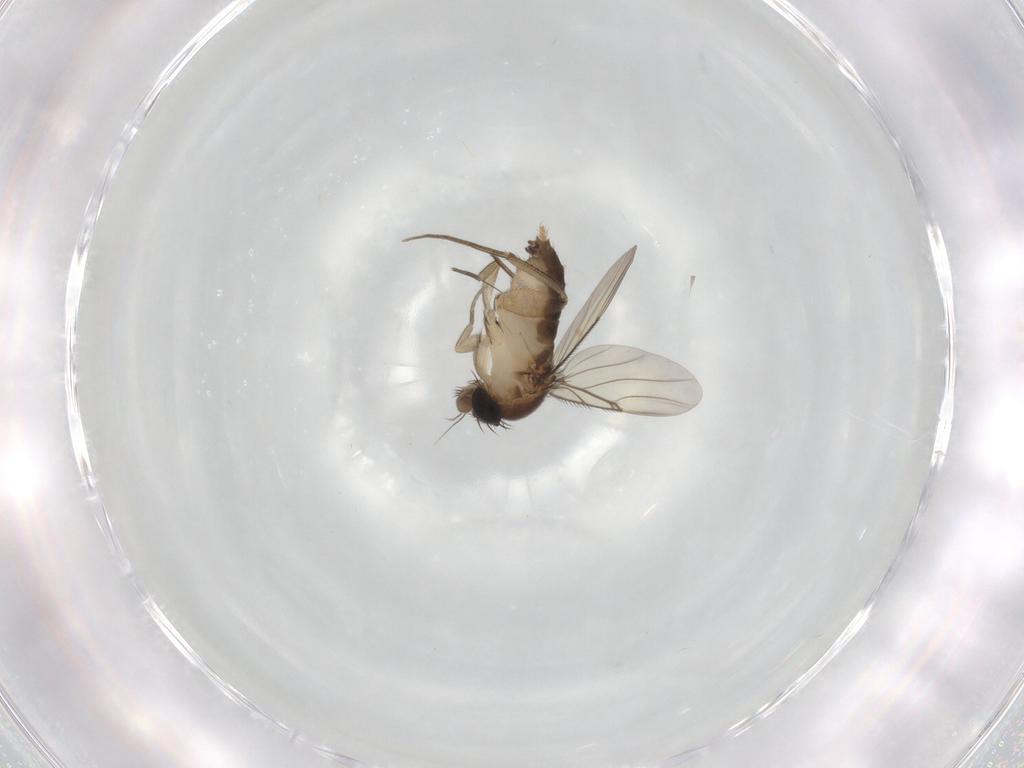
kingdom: Animalia
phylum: Arthropoda
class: Insecta
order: Diptera
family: Phoridae
